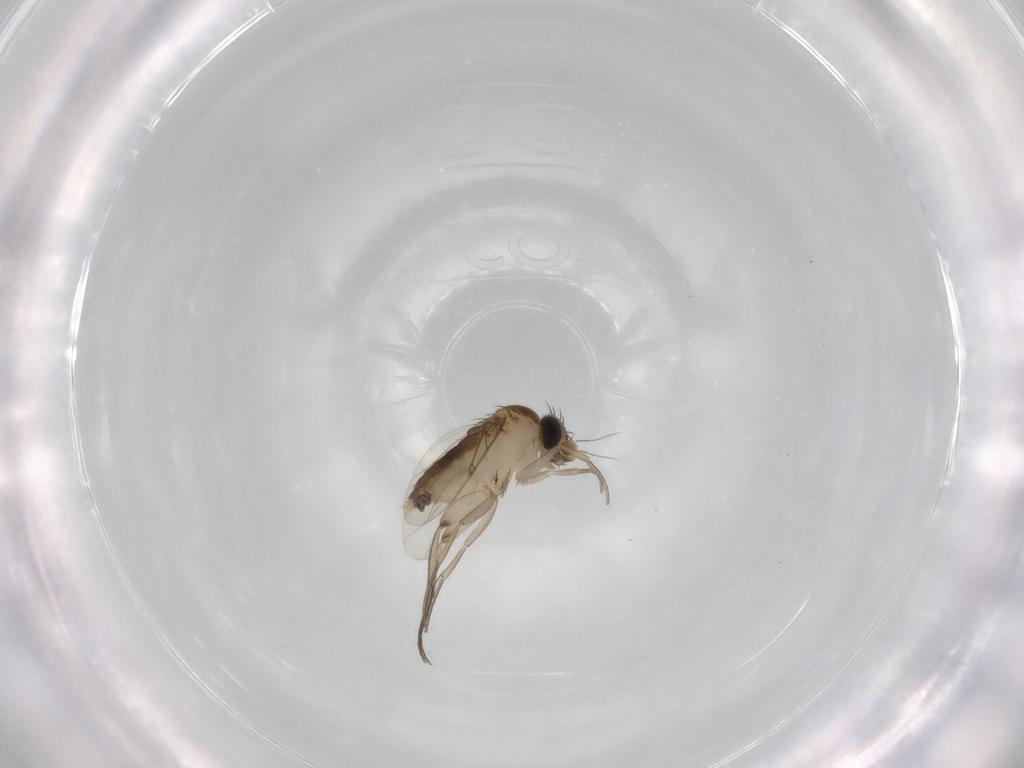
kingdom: Animalia
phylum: Arthropoda
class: Insecta
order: Diptera
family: Phoridae
